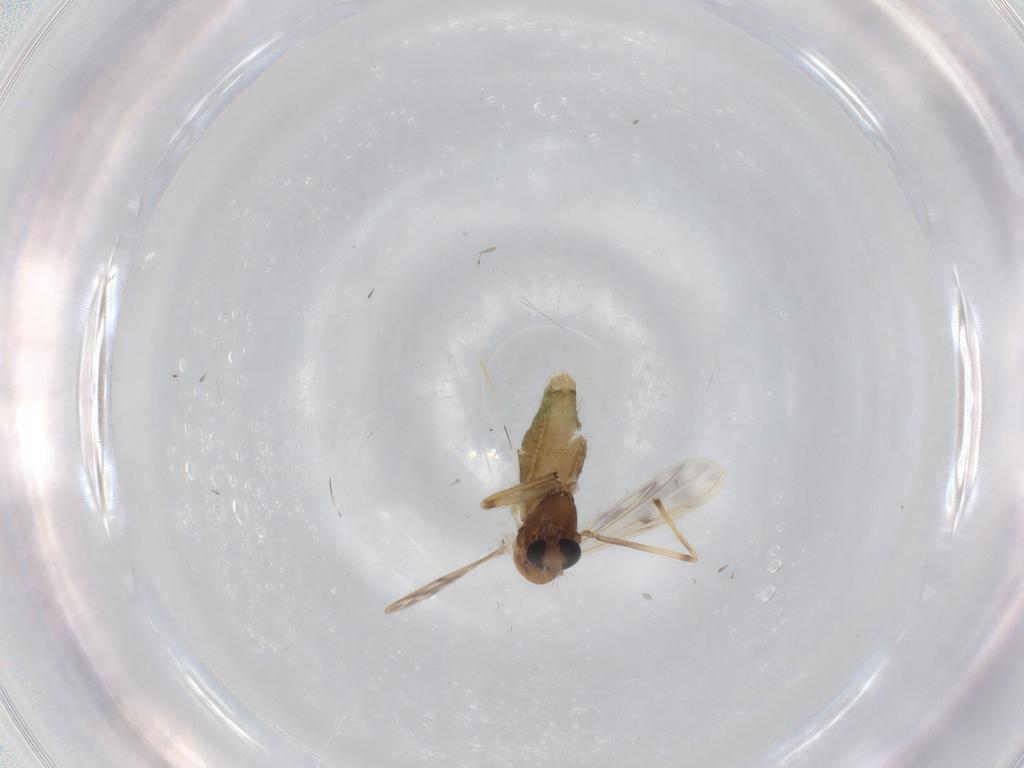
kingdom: Animalia
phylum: Arthropoda
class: Insecta
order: Diptera
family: Chironomidae
